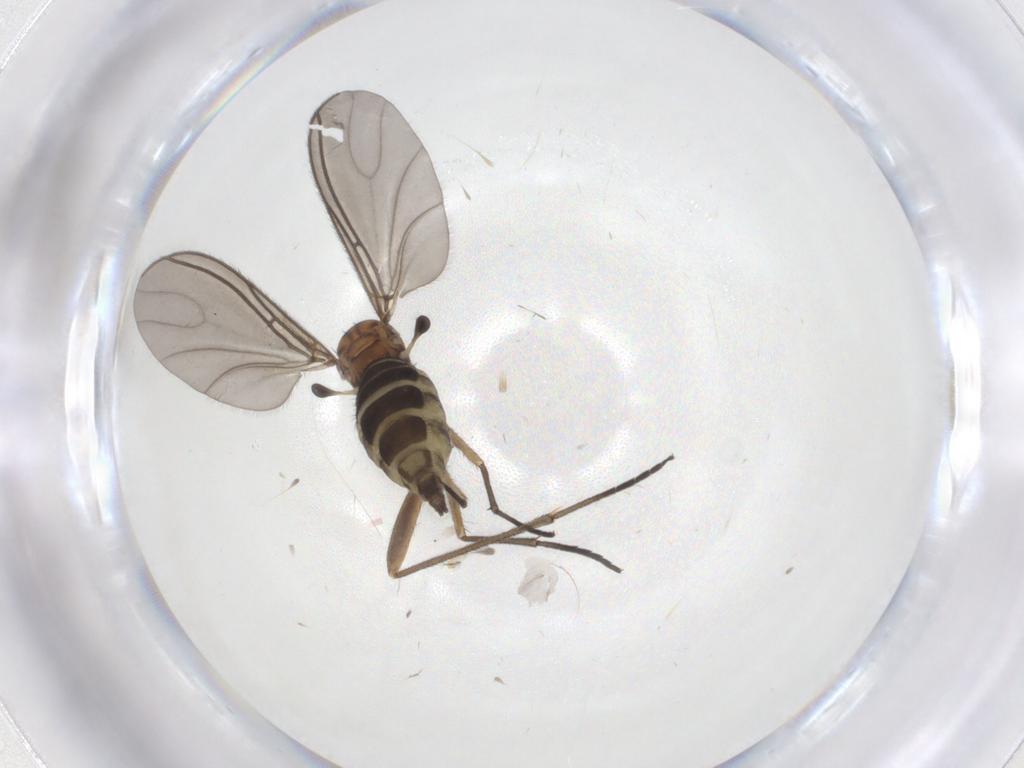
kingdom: Animalia
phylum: Arthropoda
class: Insecta
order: Diptera
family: Sciaridae
